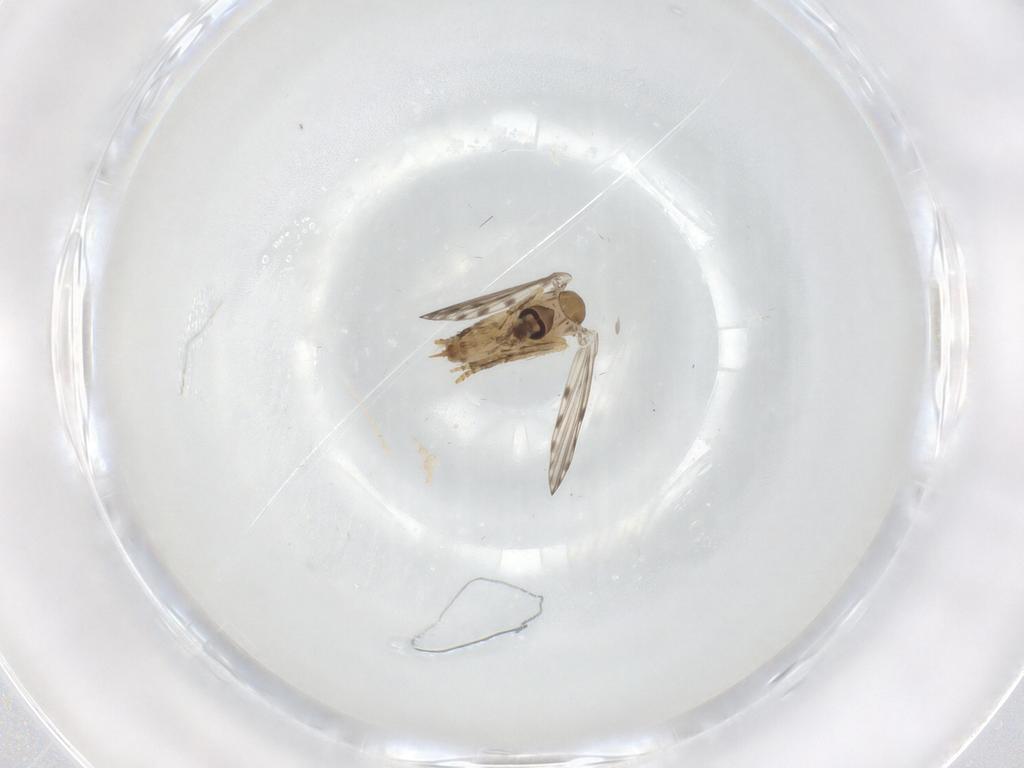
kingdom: Animalia
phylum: Arthropoda
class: Insecta
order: Diptera
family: Psychodidae
